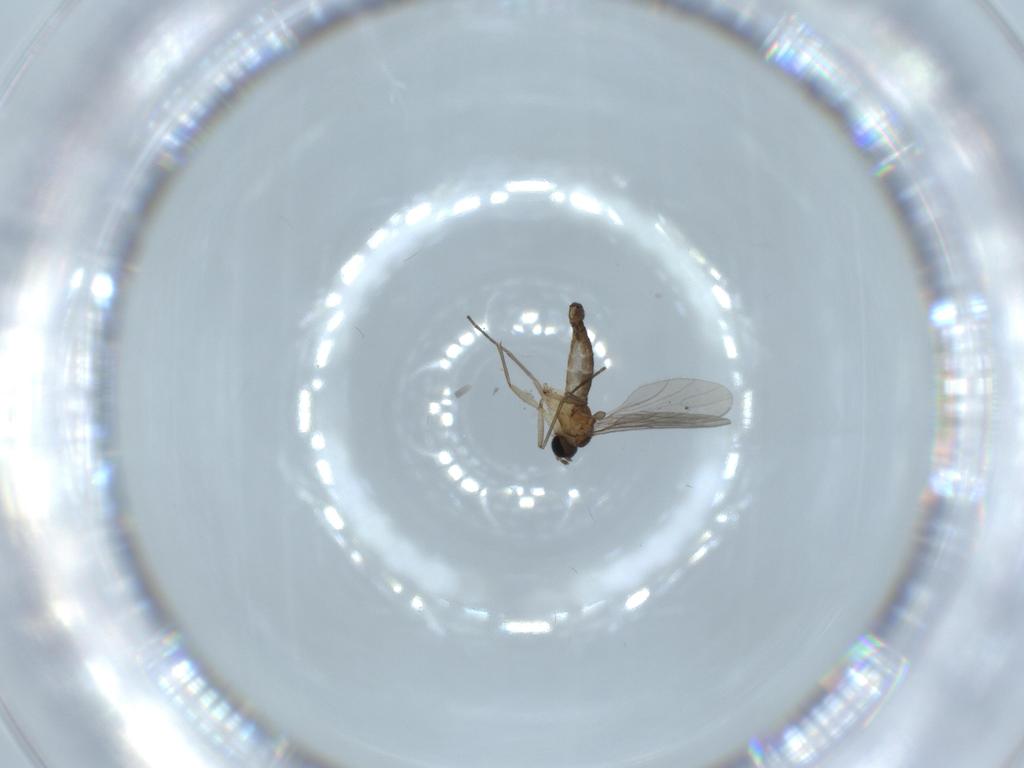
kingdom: Animalia
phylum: Arthropoda
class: Insecta
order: Diptera
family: Sciaridae
